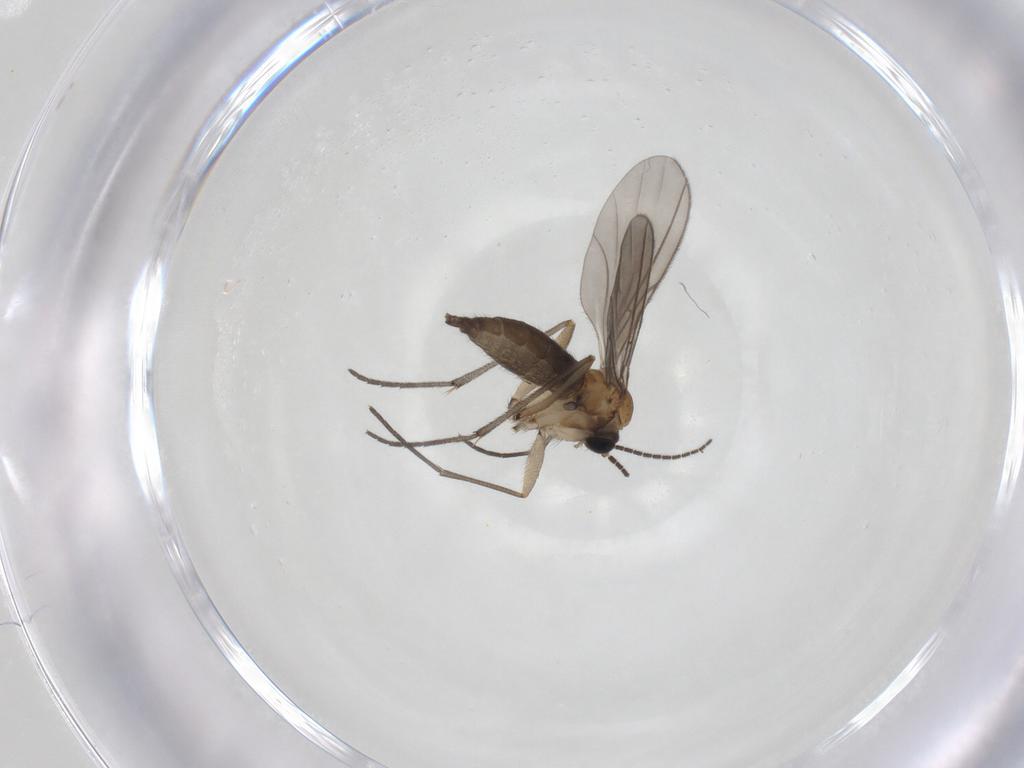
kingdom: Animalia
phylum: Arthropoda
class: Insecta
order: Diptera
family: Sciaridae
